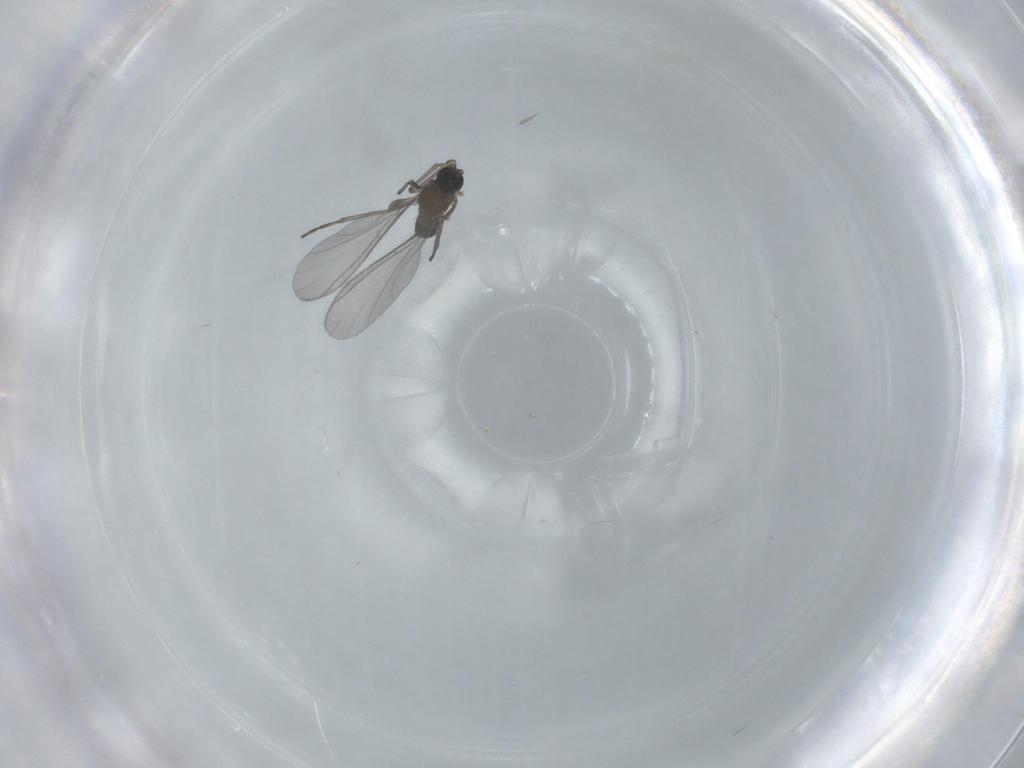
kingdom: Animalia
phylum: Arthropoda
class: Insecta
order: Diptera
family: Sciaridae
